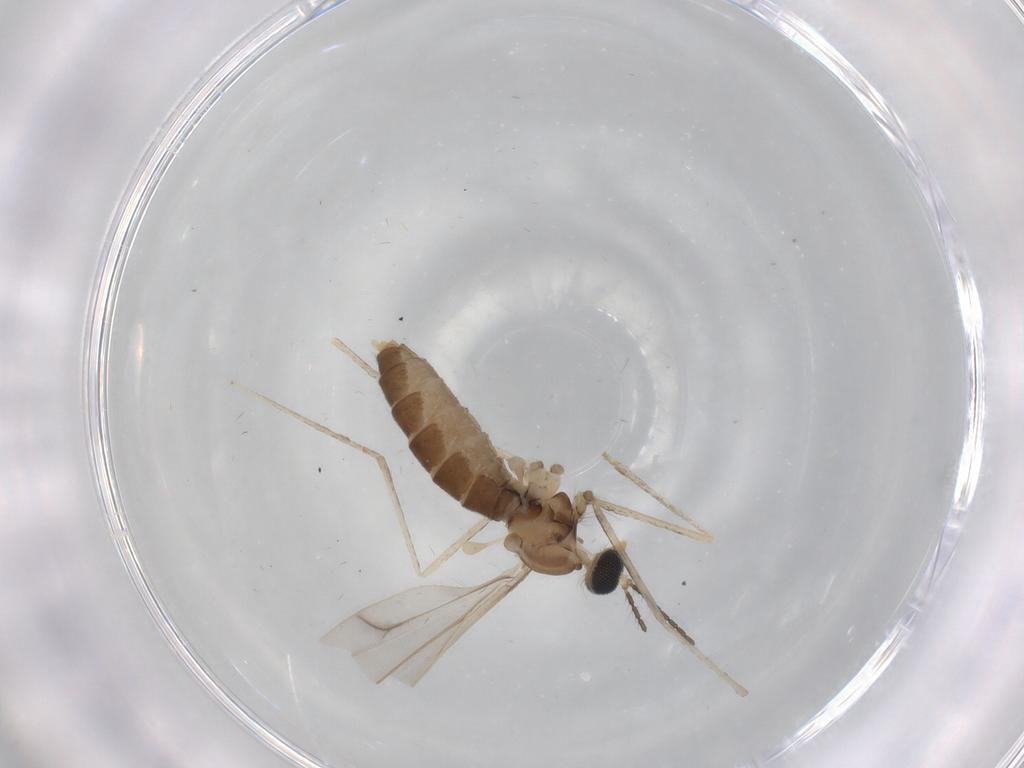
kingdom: Animalia
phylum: Arthropoda
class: Insecta
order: Diptera
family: Cecidomyiidae
